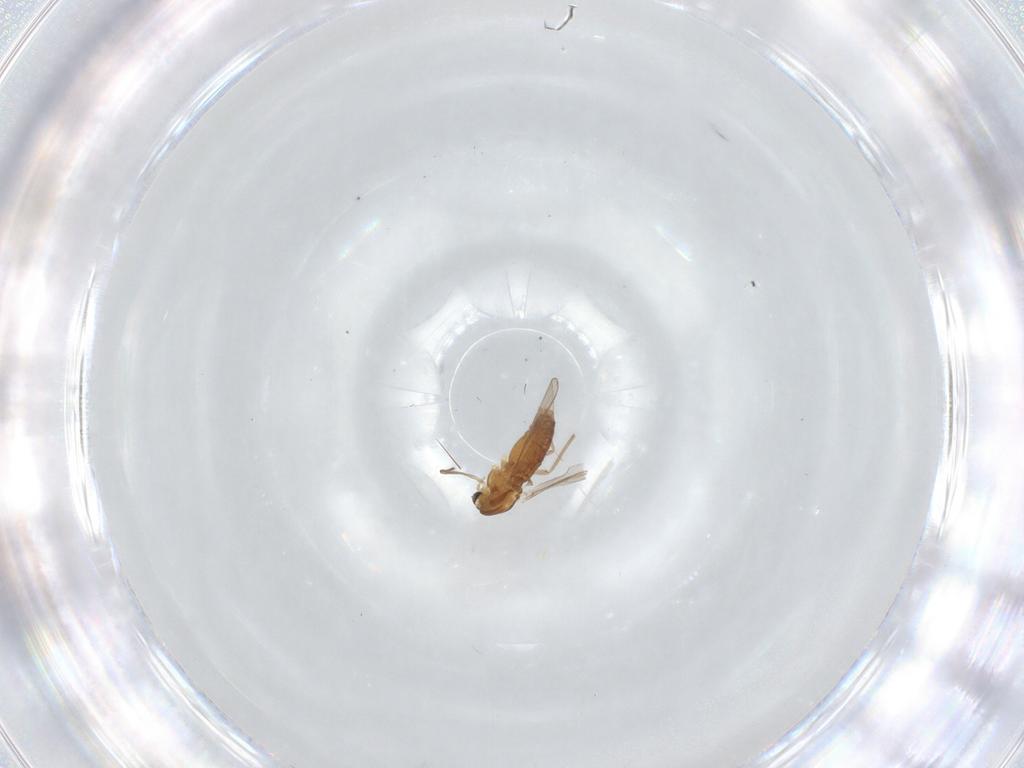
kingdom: Animalia
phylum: Arthropoda
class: Insecta
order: Diptera
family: Chironomidae
